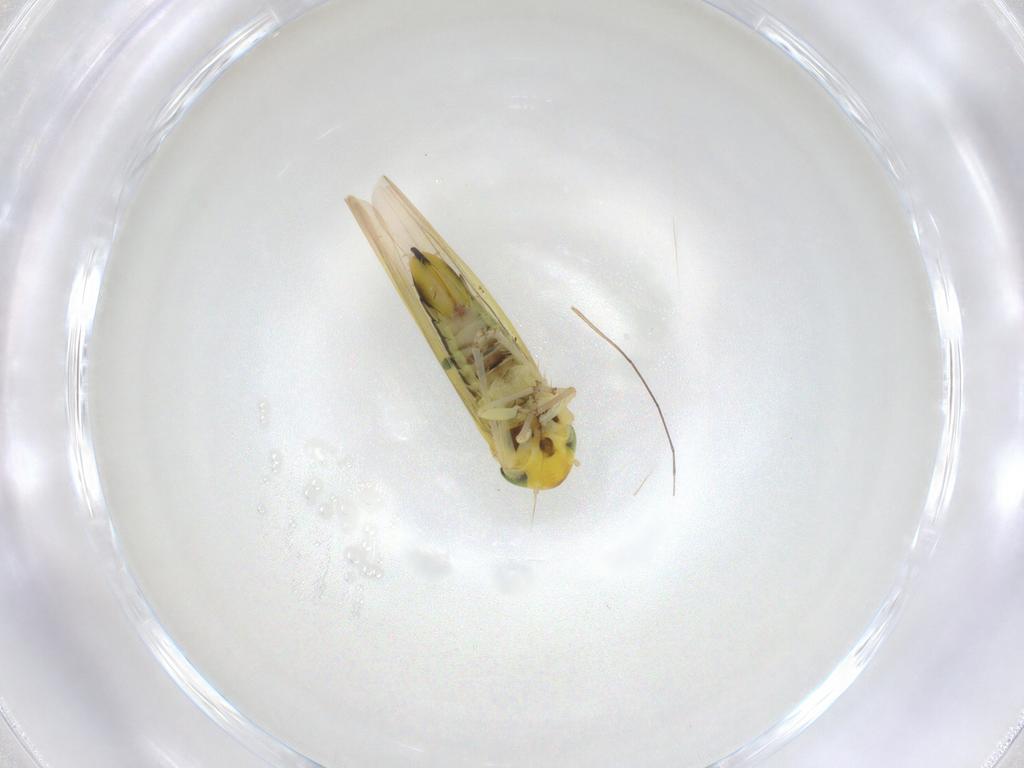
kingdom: Animalia
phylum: Arthropoda
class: Insecta
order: Hemiptera
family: Cicadellidae
